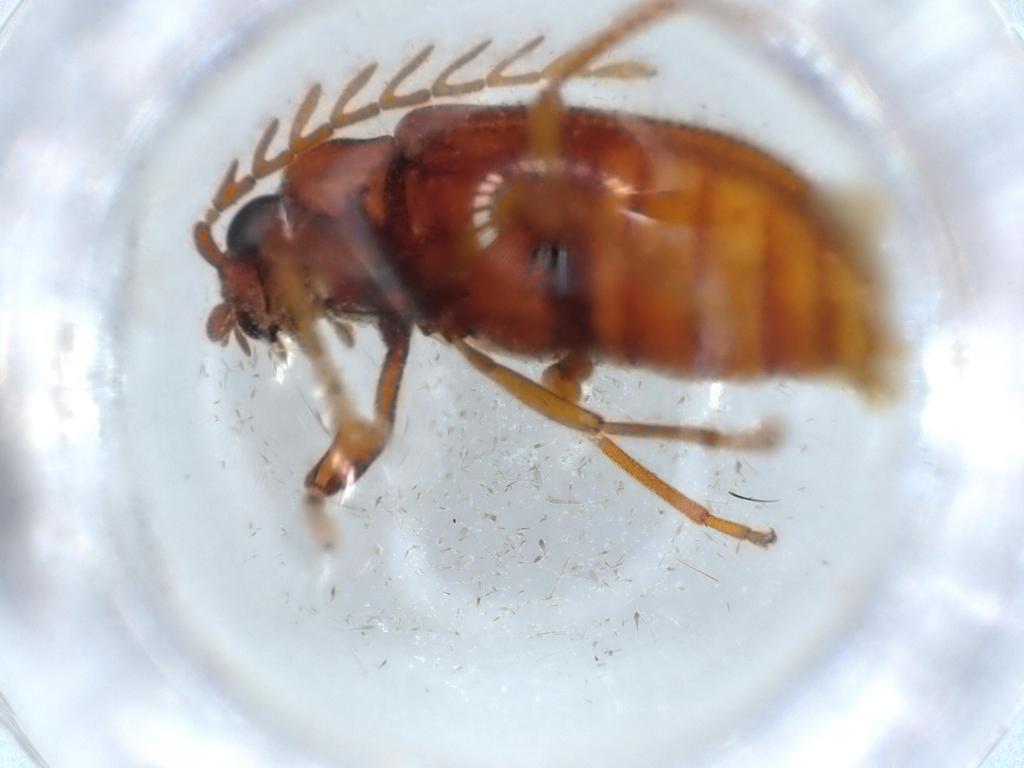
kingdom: Animalia
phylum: Arthropoda
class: Insecta
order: Coleoptera
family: Cerophytidae
